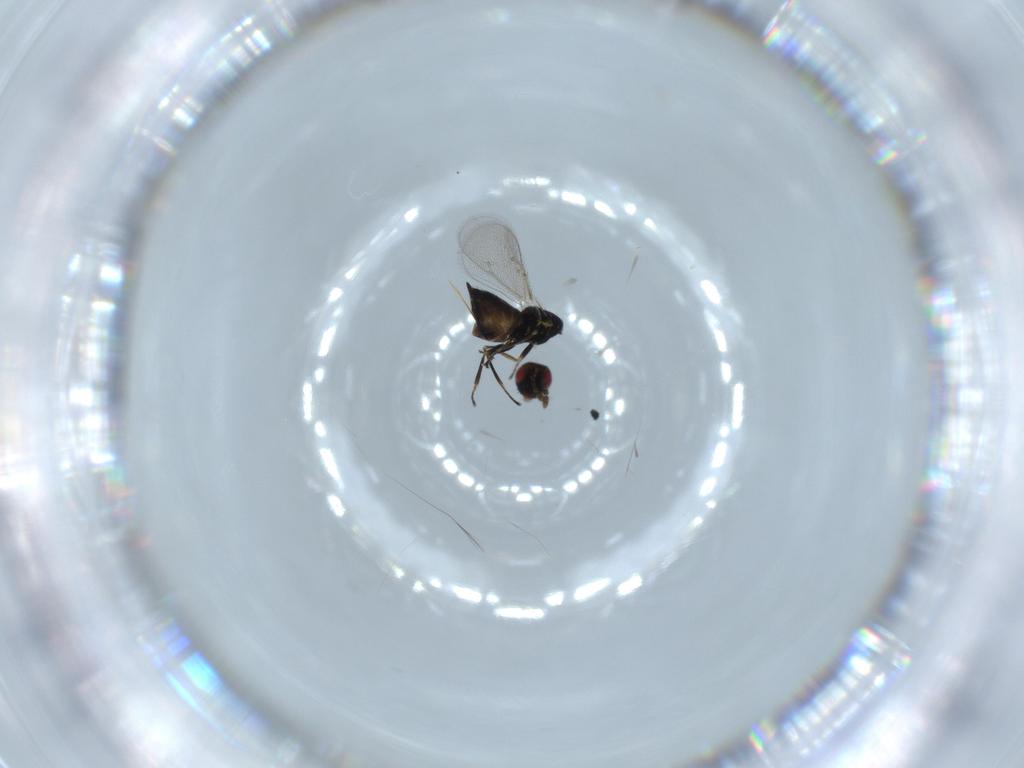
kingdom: Animalia
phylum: Arthropoda
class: Insecta
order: Hymenoptera
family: Eulophidae
